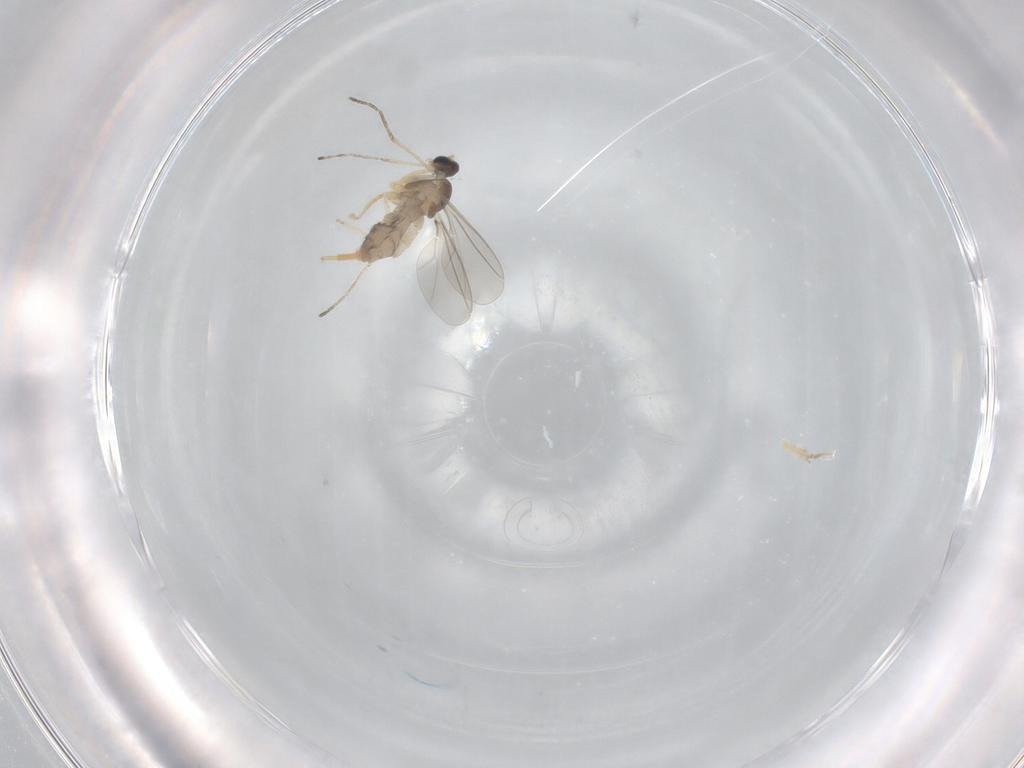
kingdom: Animalia
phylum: Arthropoda
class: Insecta
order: Diptera
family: Cecidomyiidae
